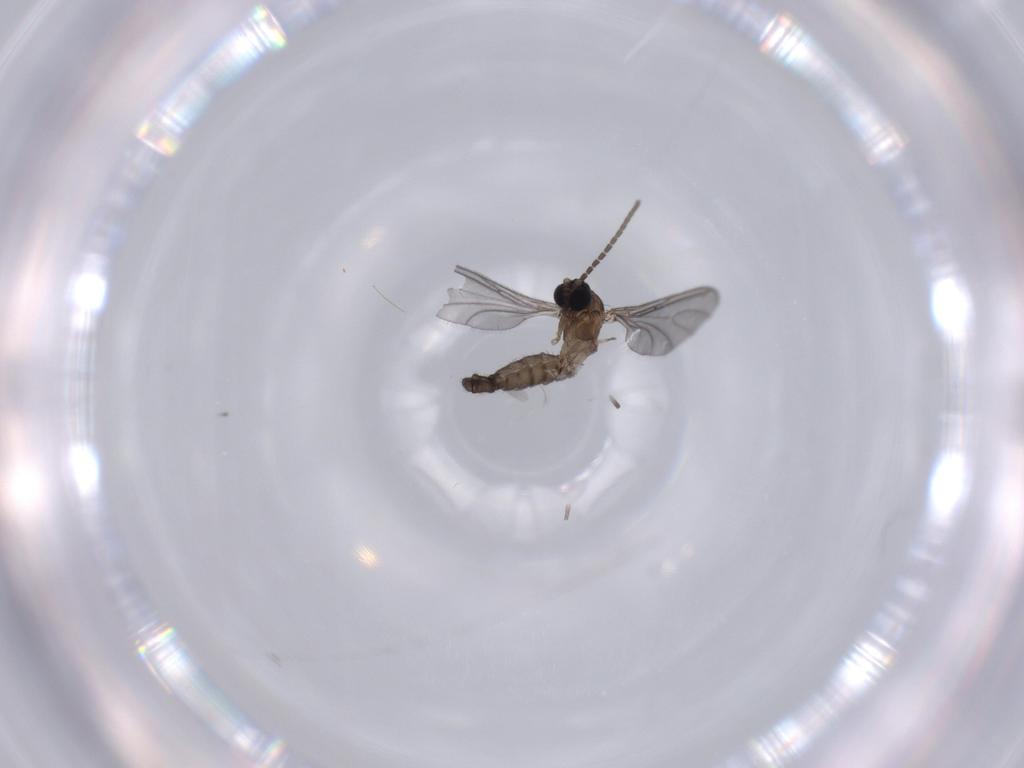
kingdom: Animalia
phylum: Arthropoda
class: Insecta
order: Diptera
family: Sciaridae
